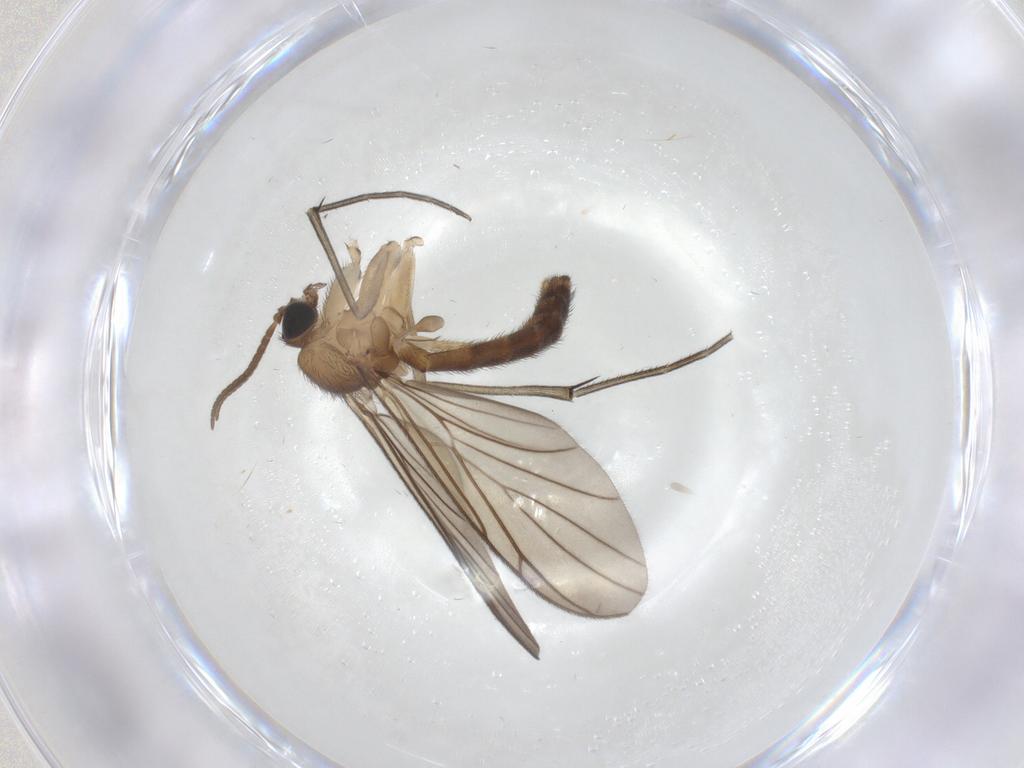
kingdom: Animalia
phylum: Arthropoda
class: Insecta
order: Diptera
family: Keroplatidae
